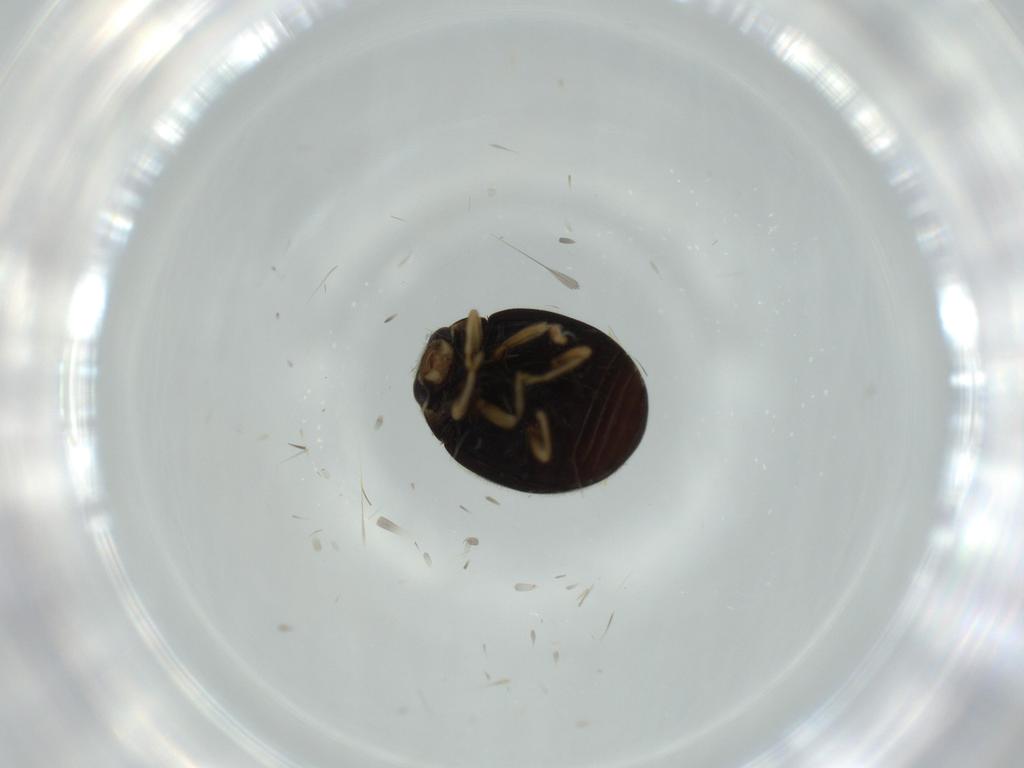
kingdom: Animalia
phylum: Arthropoda
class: Insecta
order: Coleoptera
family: Coccinellidae
